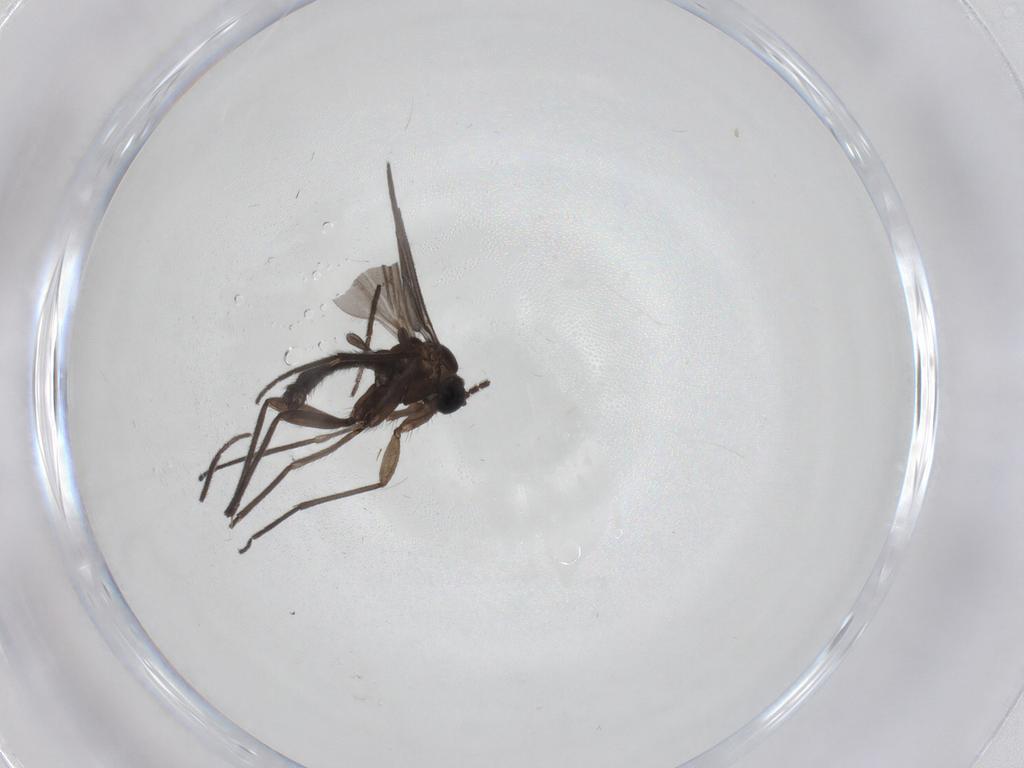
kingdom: Animalia
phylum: Arthropoda
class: Insecta
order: Diptera
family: Sciaridae
